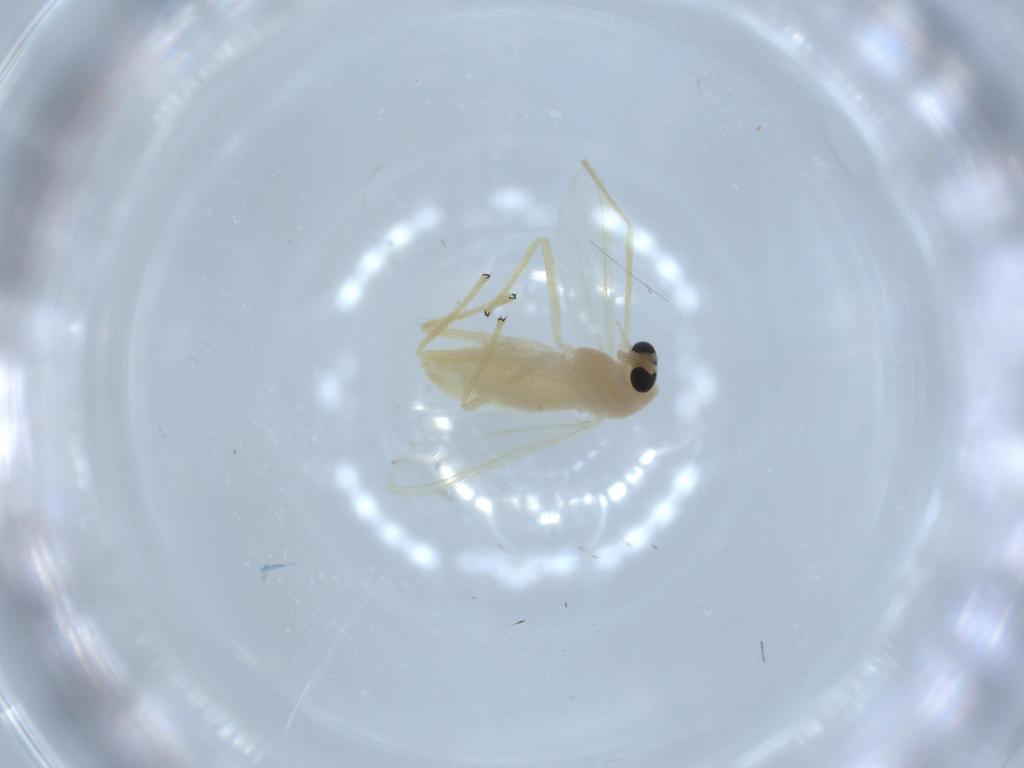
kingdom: Animalia
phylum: Arthropoda
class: Insecta
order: Diptera
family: Chironomidae
